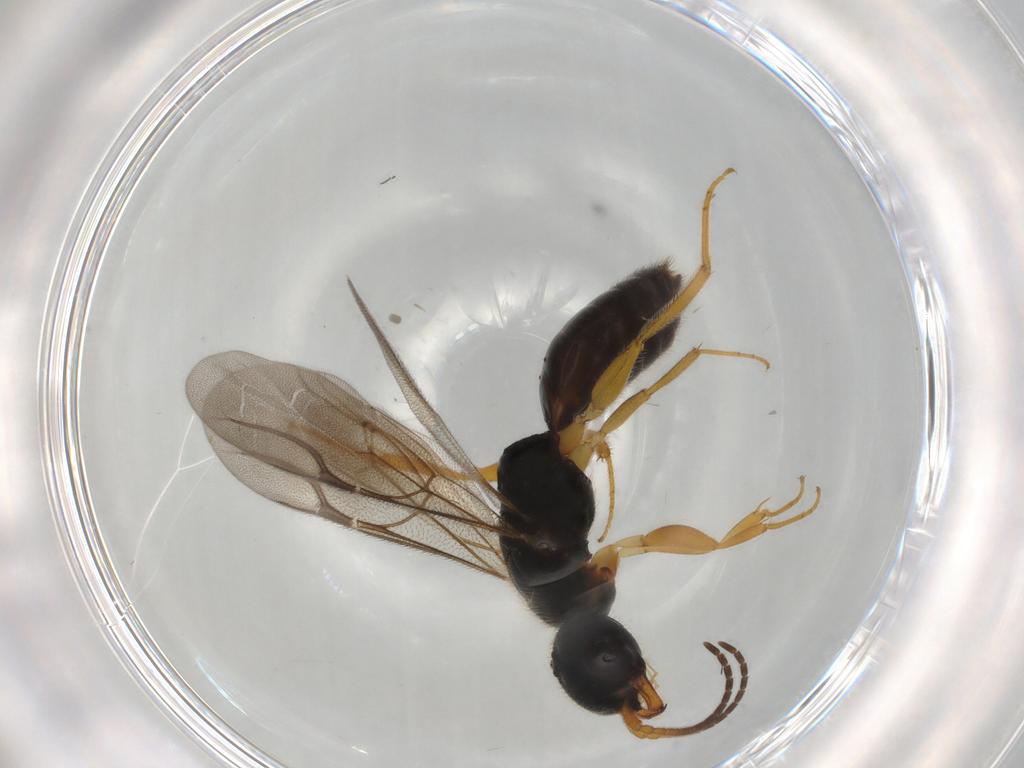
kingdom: Animalia
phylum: Arthropoda
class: Insecta
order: Hymenoptera
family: Bethylidae
